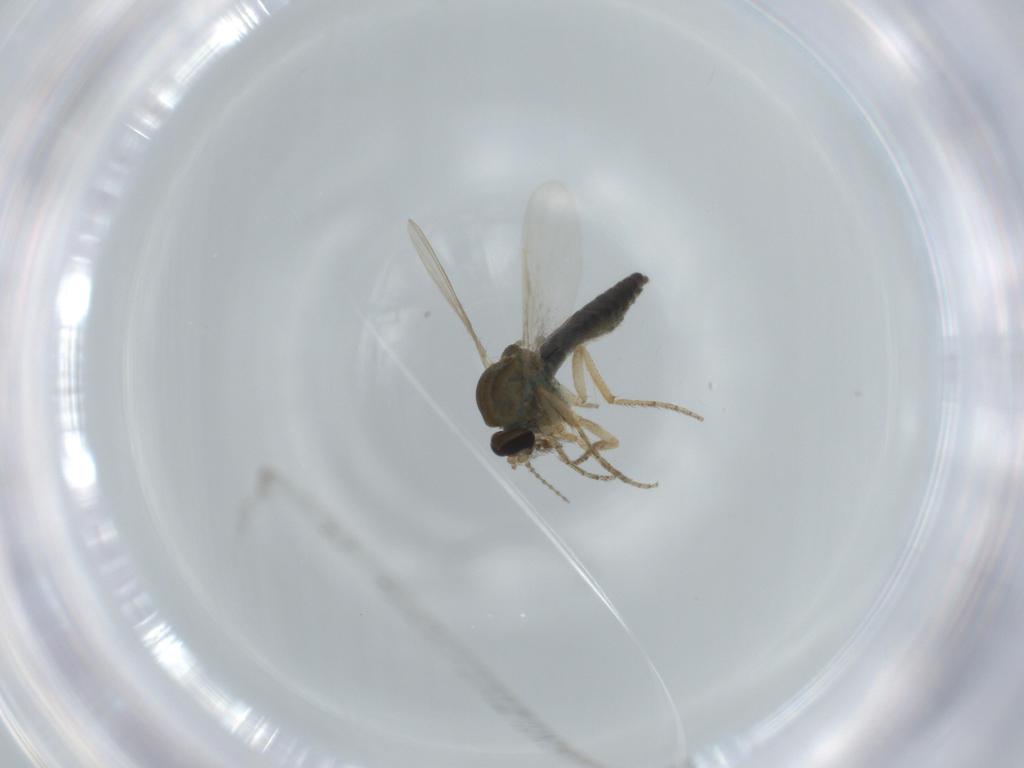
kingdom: Animalia
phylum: Arthropoda
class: Insecta
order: Diptera
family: Ceratopogonidae
